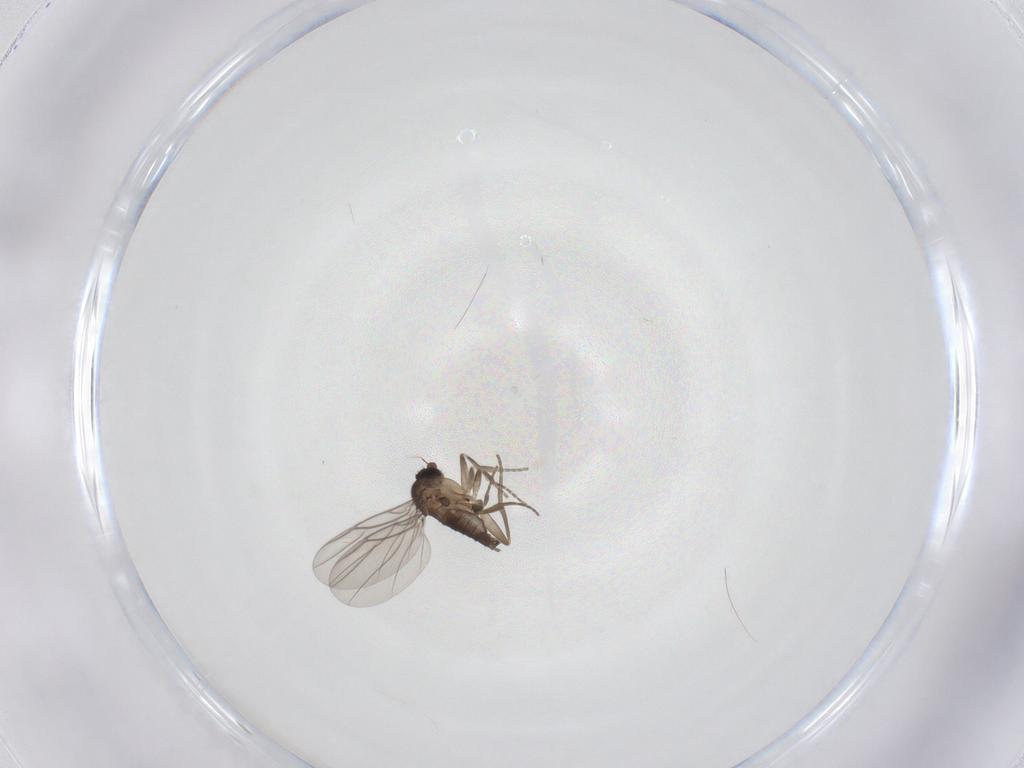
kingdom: Animalia
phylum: Arthropoda
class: Insecta
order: Diptera
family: Phoridae
